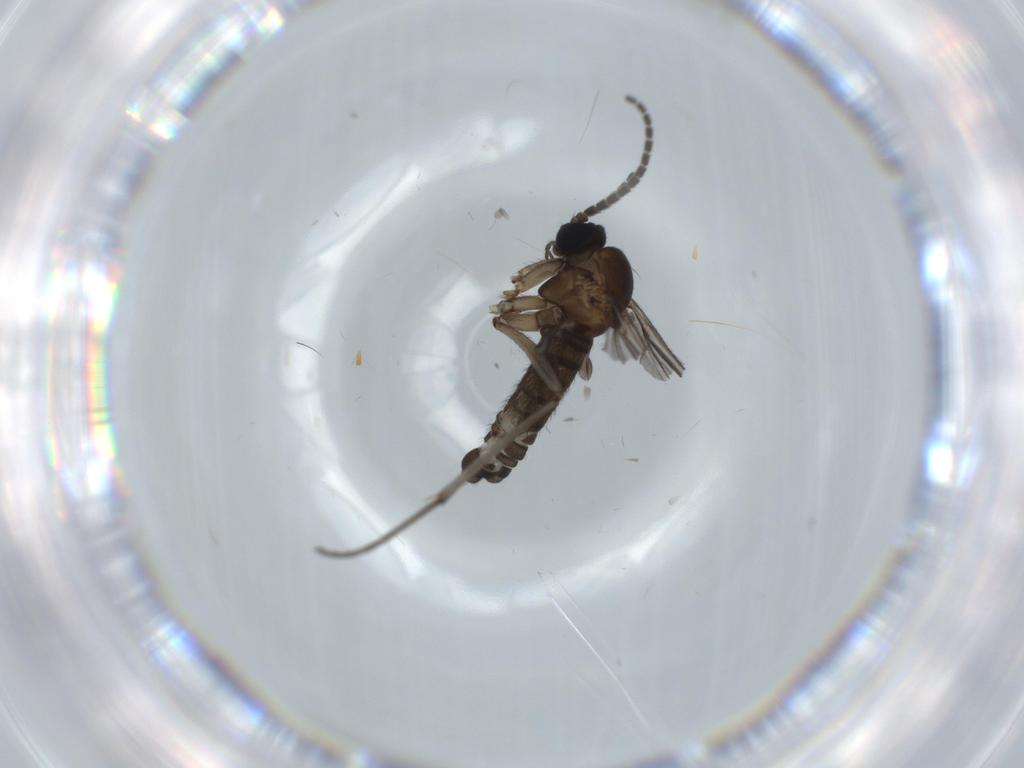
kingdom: Animalia
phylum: Arthropoda
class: Insecta
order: Diptera
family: Sciaridae
